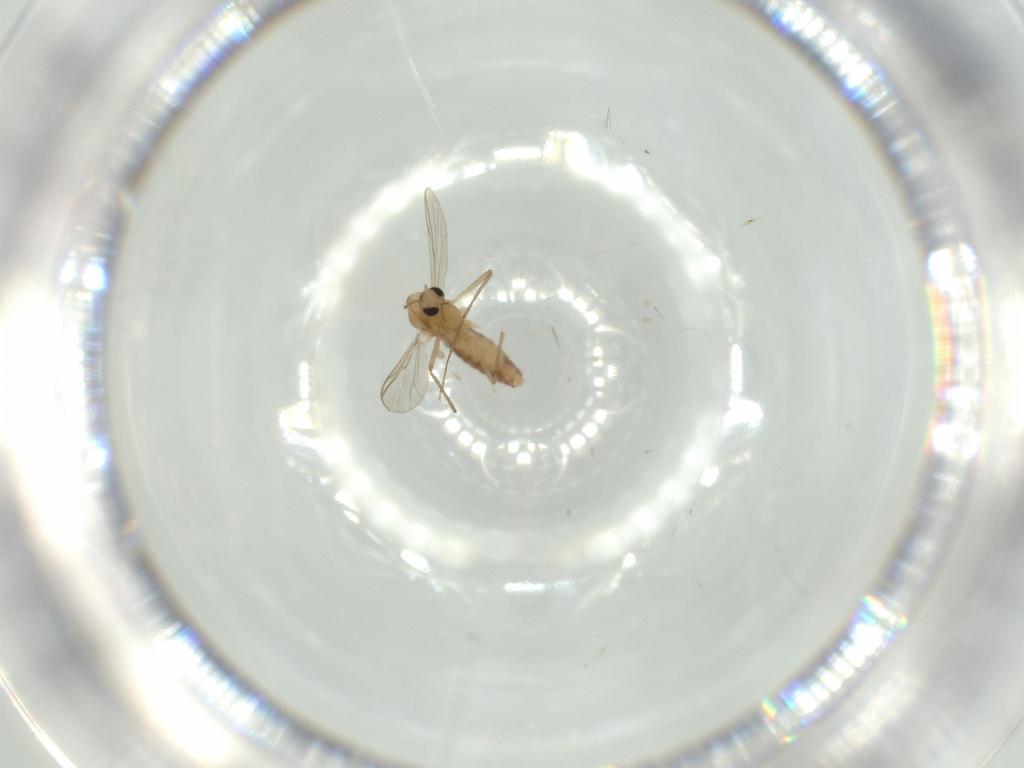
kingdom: Animalia
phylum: Arthropoda
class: Insecta
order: Diptera
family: Chironomidae
